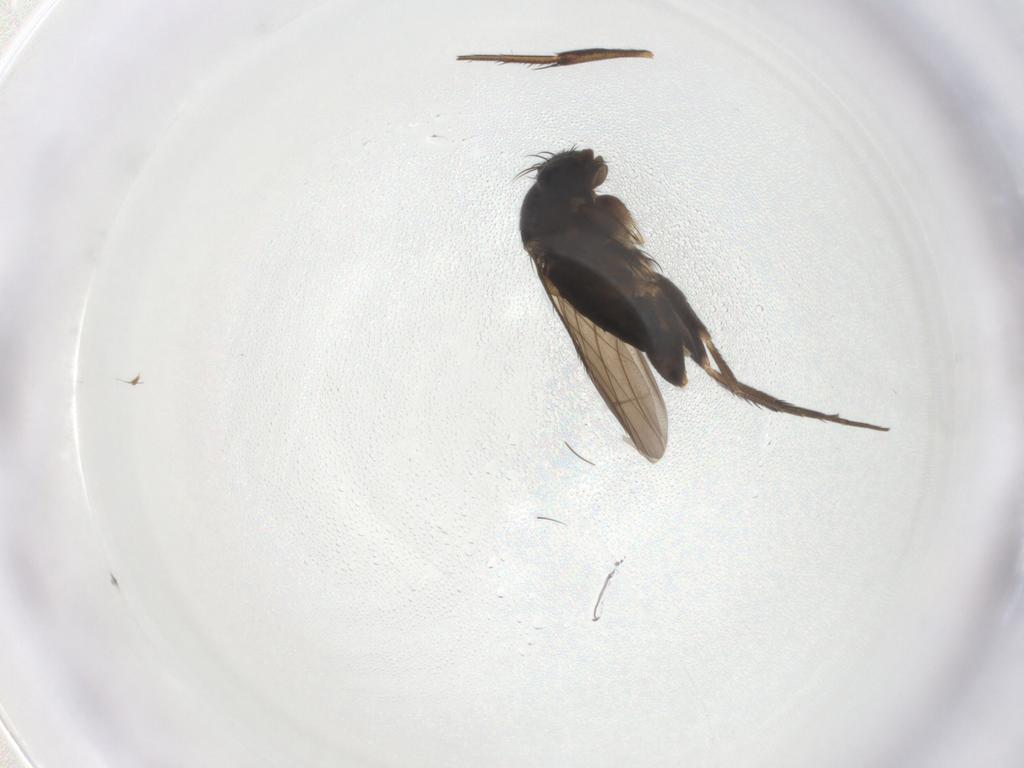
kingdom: Animalia
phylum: Arthropoda
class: Insecta
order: Diptera
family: Phoridae
